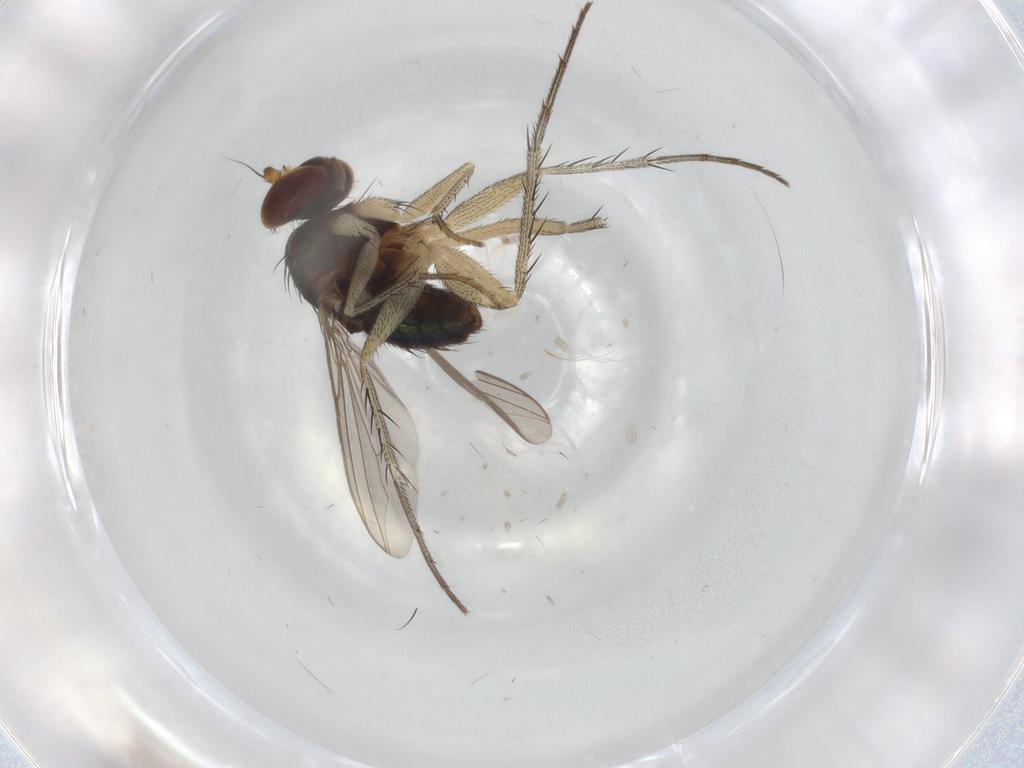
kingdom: Animalia
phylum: Arthropoda
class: Insecta
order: Diptera
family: Dolichopodidae
